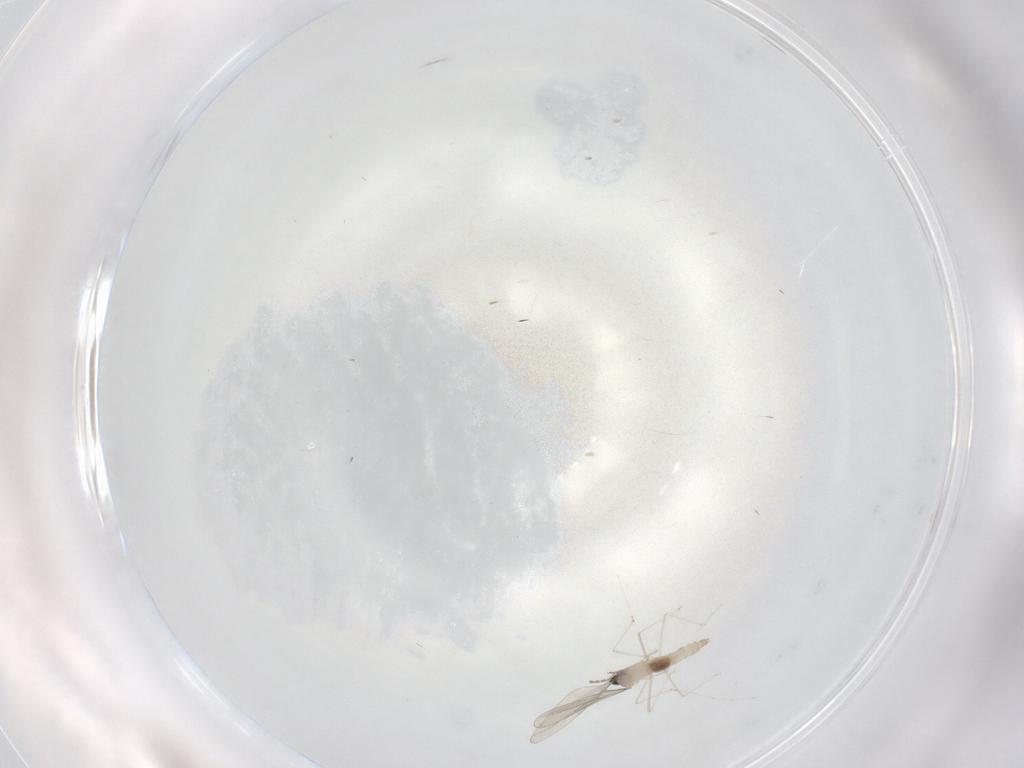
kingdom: Animalia
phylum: Arthropoda
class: Insecta
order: Diptera
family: Cecidomyiidae
